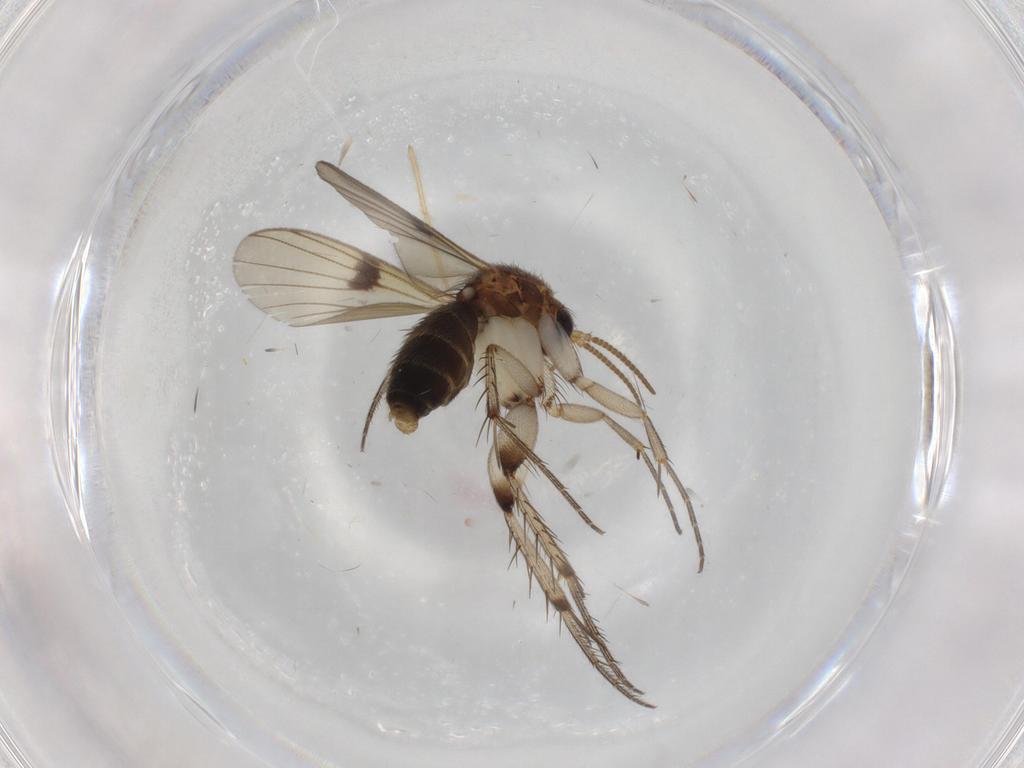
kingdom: Animalia
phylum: Arthropoda
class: Insecta
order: Diptera
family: Mycetophilidae
